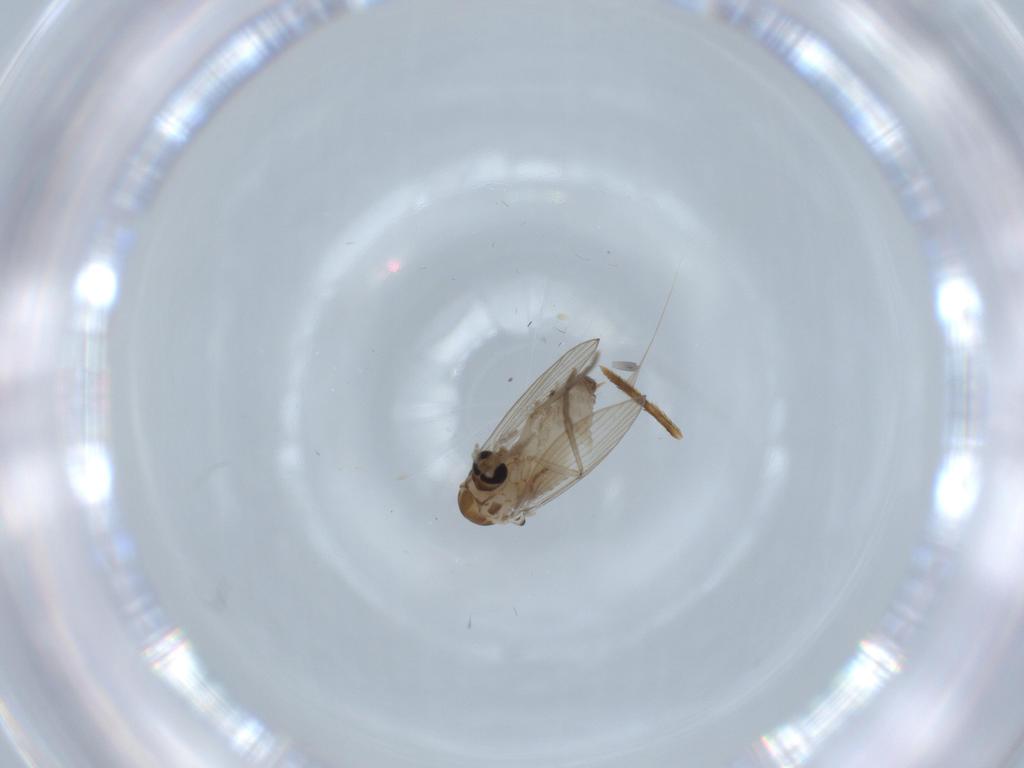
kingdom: Animalia
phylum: Arthropoda
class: Insecta
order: Diptera
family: Psychodidae
